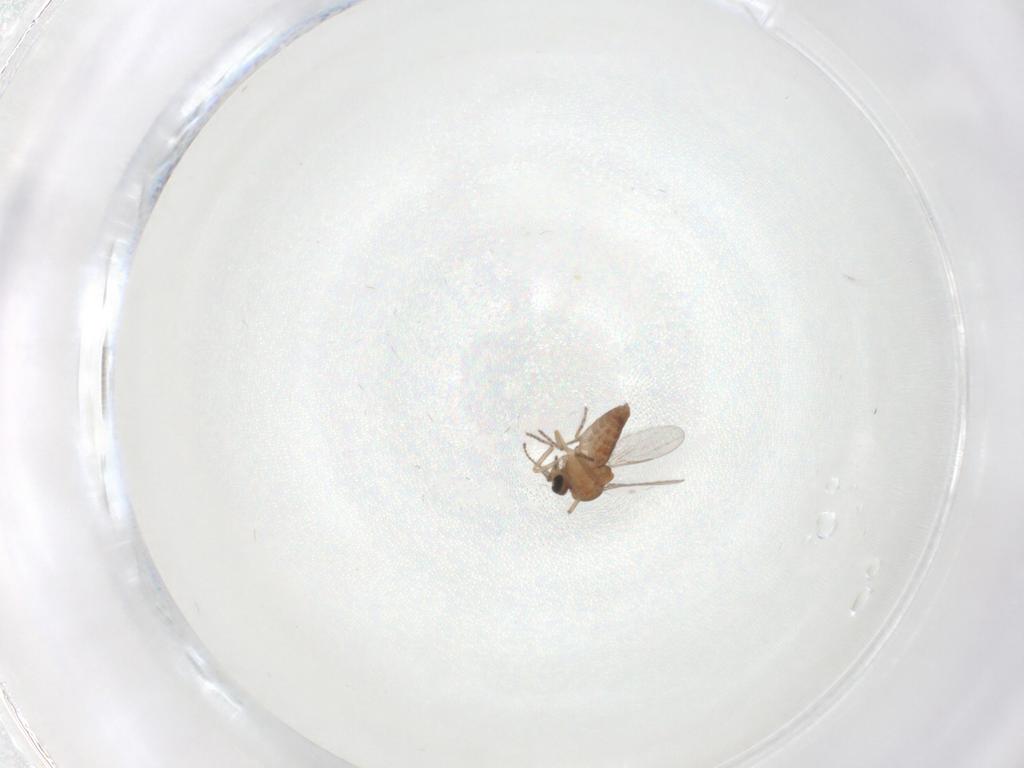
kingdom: Animalia
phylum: Arthropoda
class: Insecta
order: Diptera
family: Ceratopogonidae
